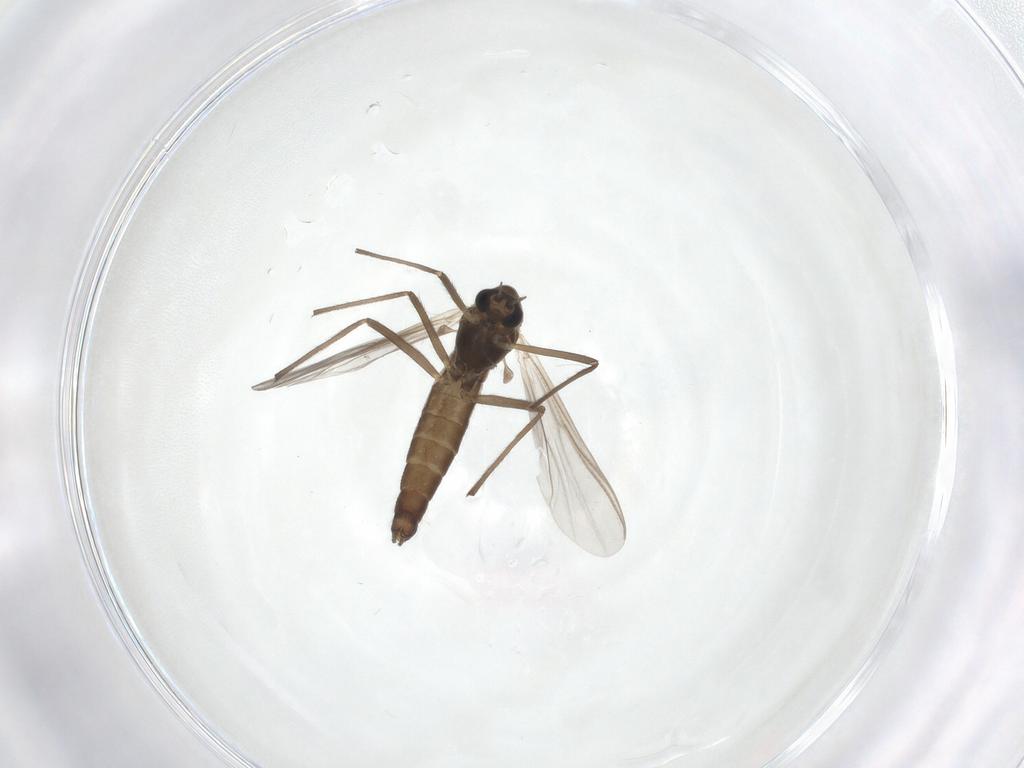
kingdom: Animalia
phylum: Arthropoda
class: Insecta
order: Diptera
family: Chironomidae
